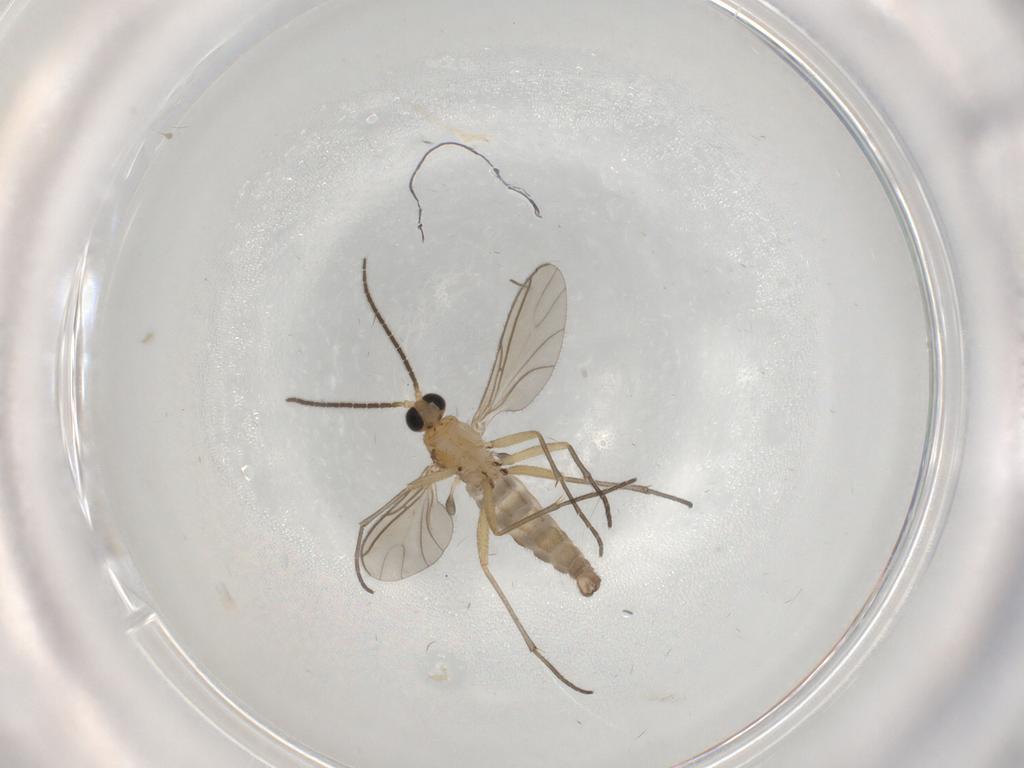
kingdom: Animalia
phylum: Arthropoda
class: Insecta
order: Diptera
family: Sciaridae
